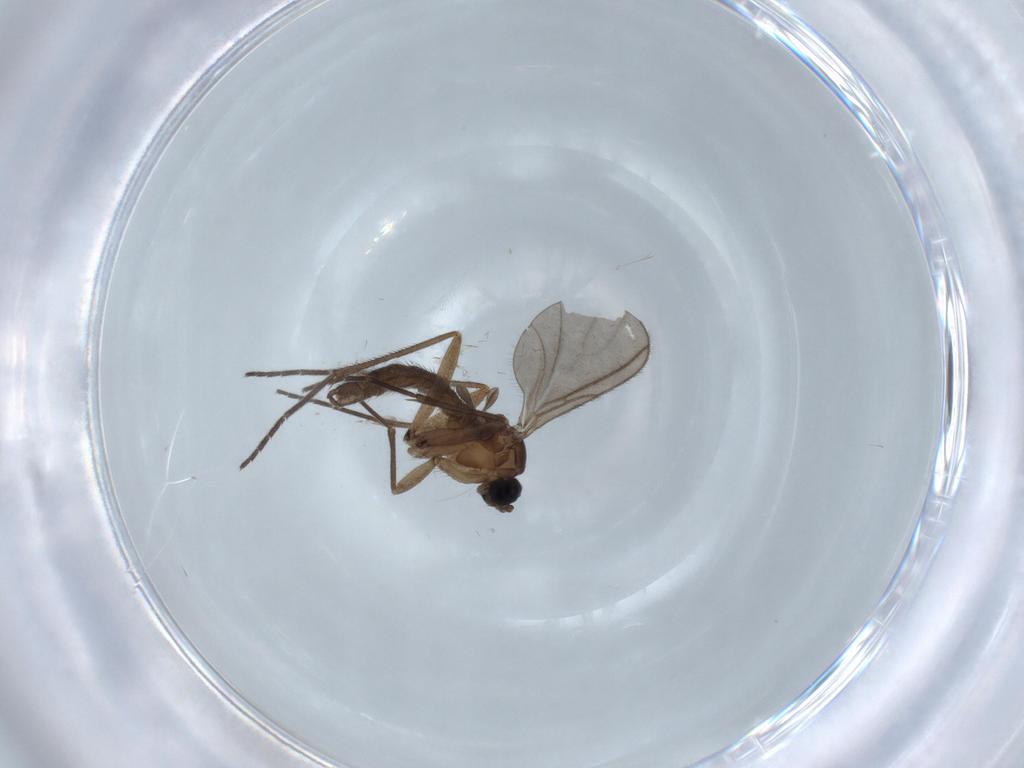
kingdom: Animalia
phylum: Arthropoda
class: Insecta
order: Diptera
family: Sciaridae
